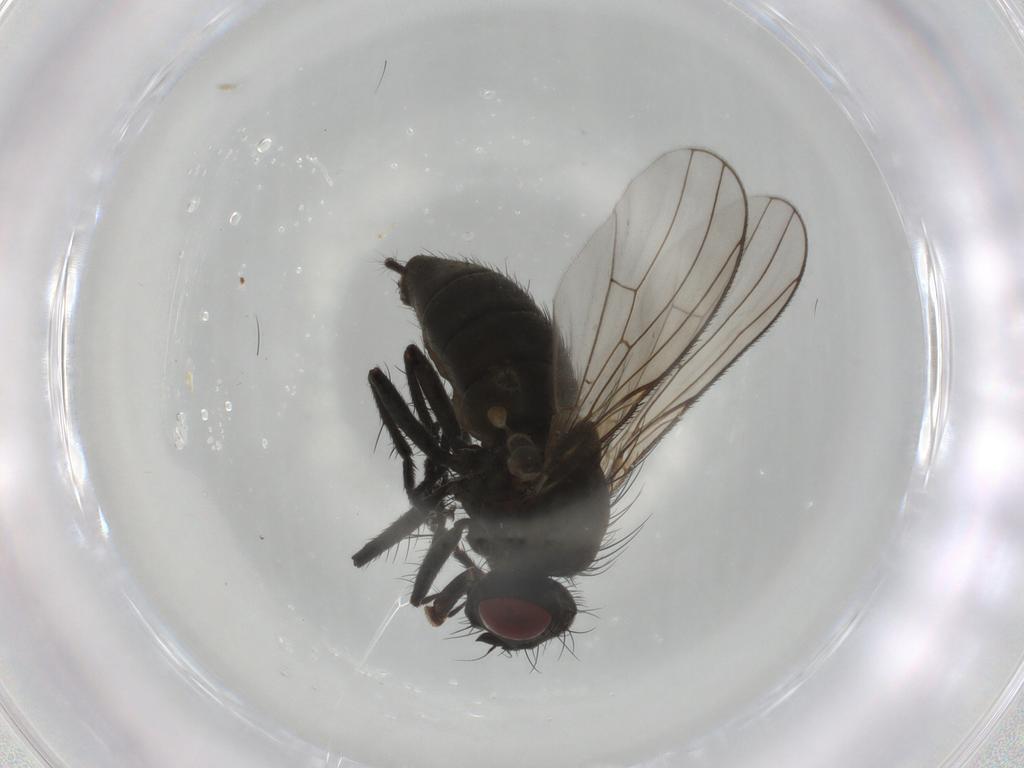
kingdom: Animalia
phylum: Arthropoda
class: Insecta
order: Diptera
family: Muscidae
